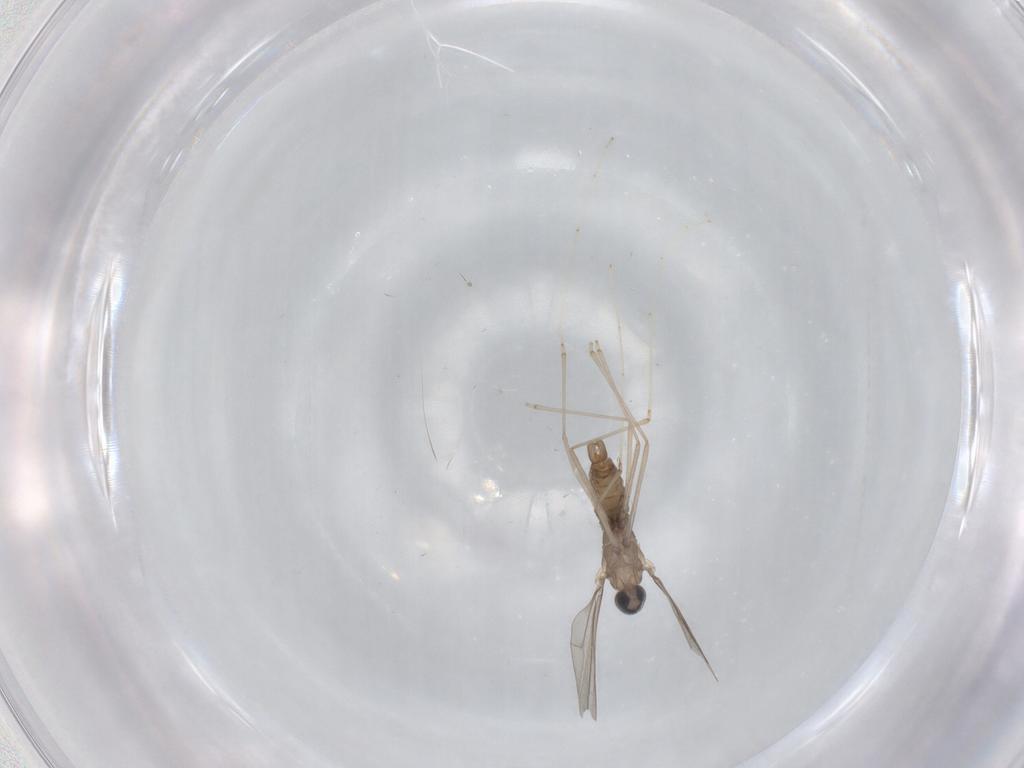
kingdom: Animalia
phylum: Arthropoda
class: Insecta
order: Diptera
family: Cecidomyiidae
